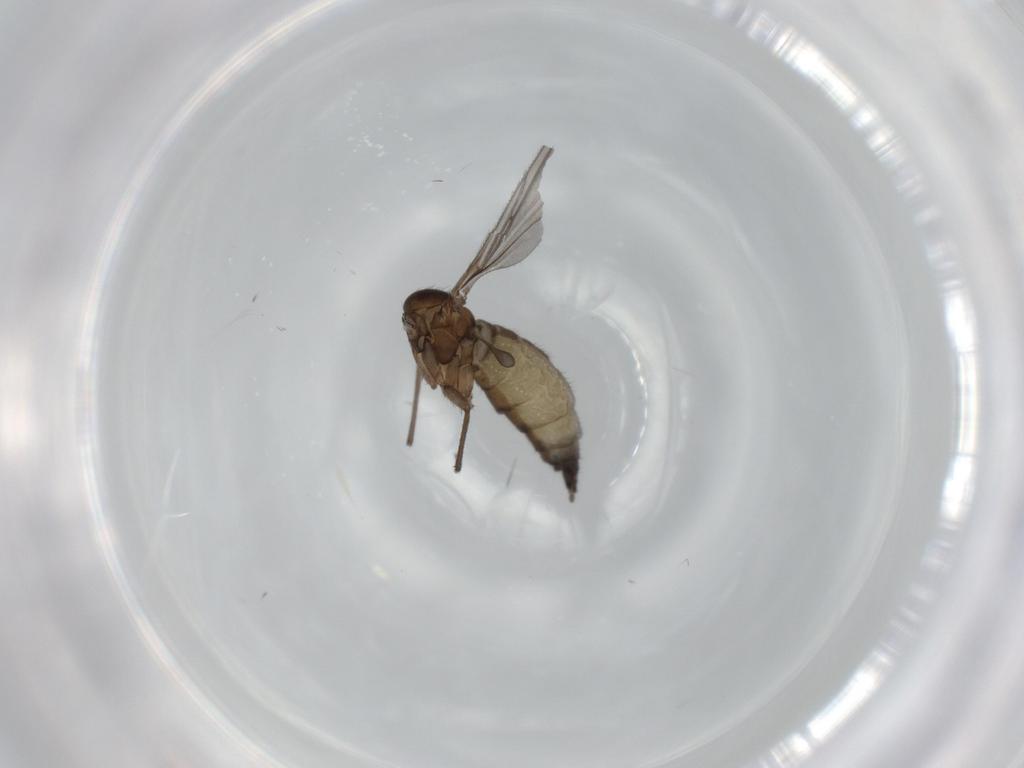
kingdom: Animalia
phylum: Arthropoda
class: Insecta
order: Diptera
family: Sciaridae
